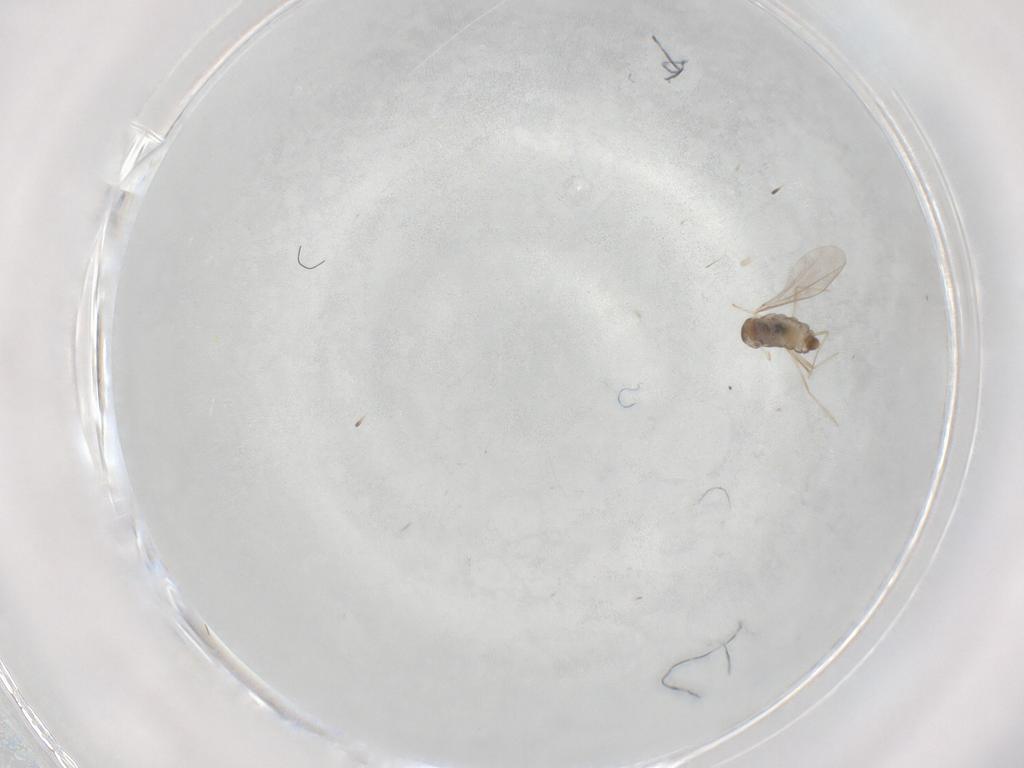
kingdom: Animalia
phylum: Arthropoda
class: Insecta
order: Diptera
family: Cecidomyiidae
